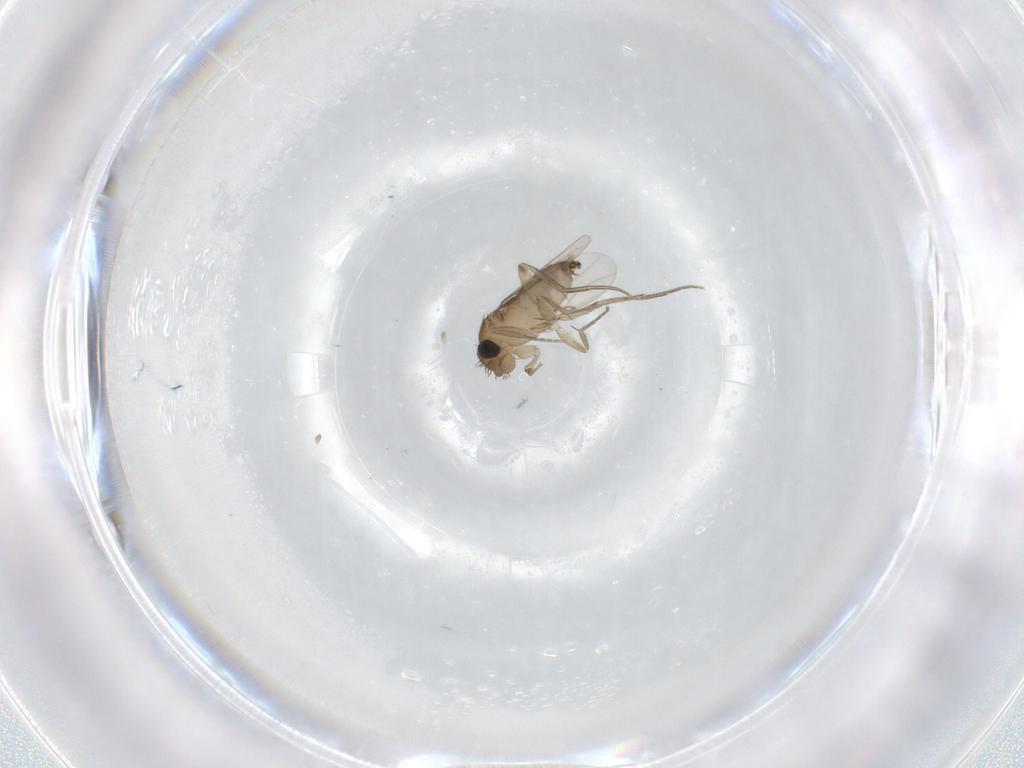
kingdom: Animalia
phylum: Arthropoda
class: Insecta
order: Diptera
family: Phoridae
